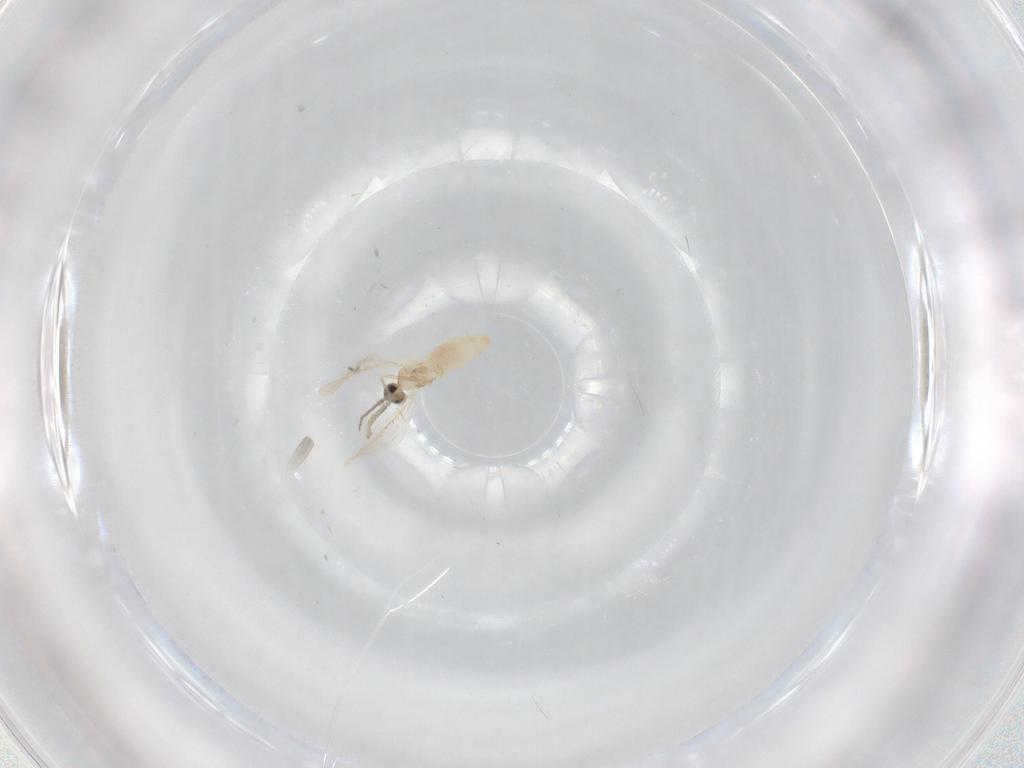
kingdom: Animalia
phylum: Arthropoda
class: Insecta
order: Diptera
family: Cecidomyiidae
